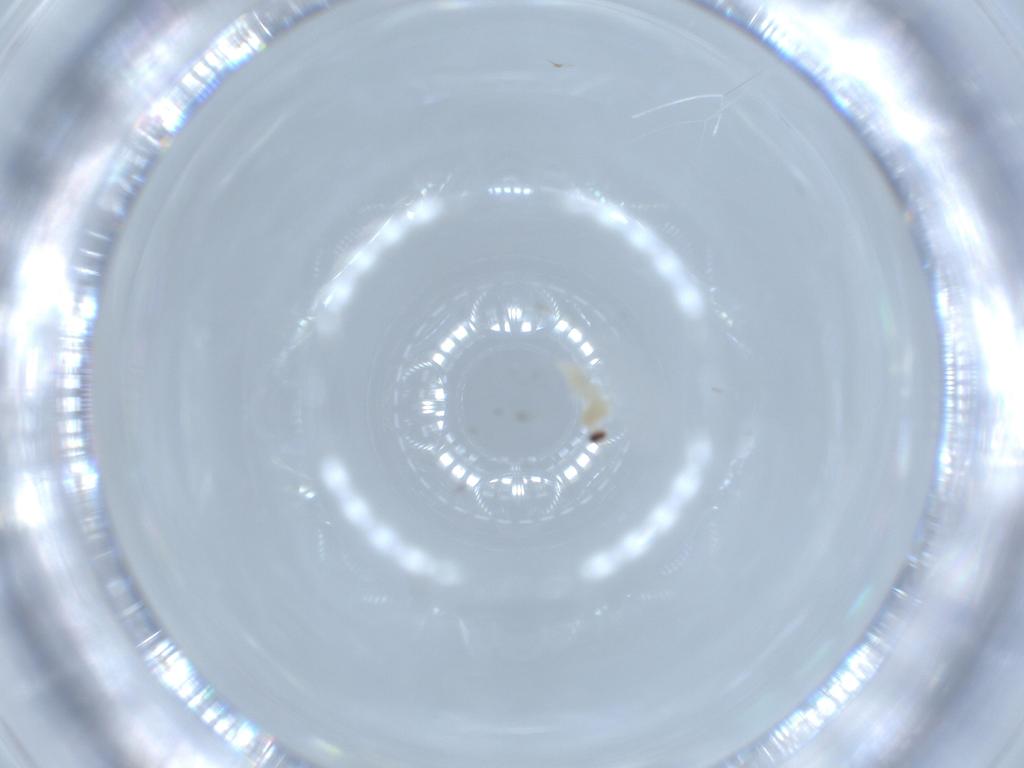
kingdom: Animalia
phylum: Arthropoda
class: Insecta
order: Diptera
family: Cecidomyiidae
